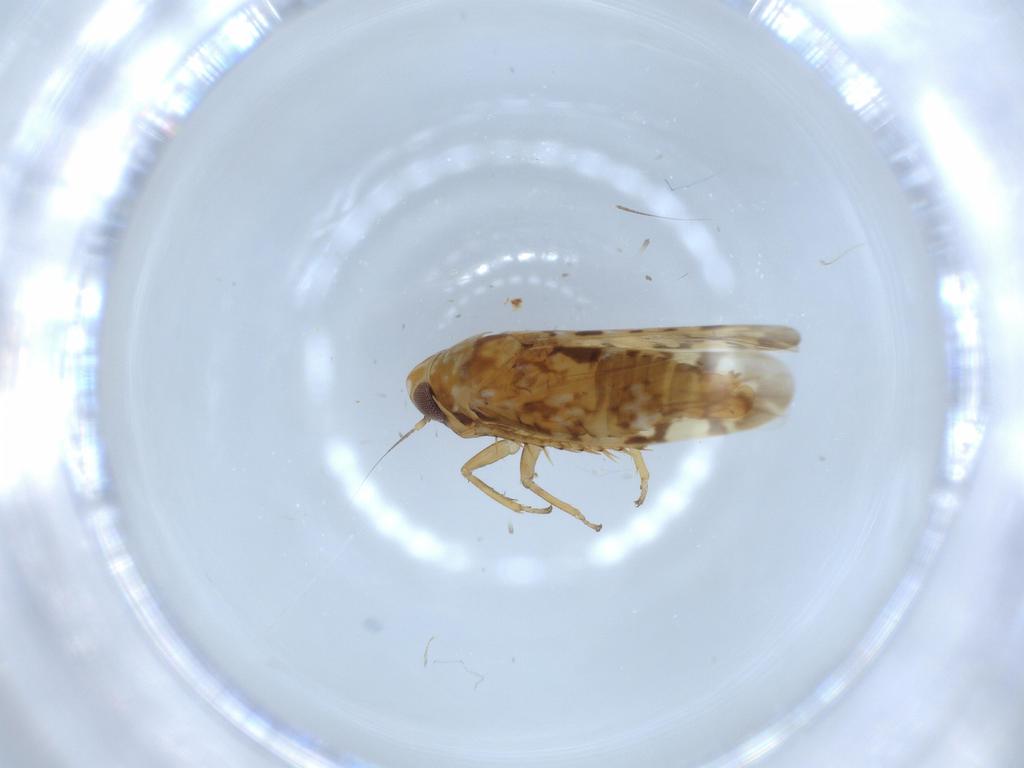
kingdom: Animalia
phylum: Arthropoda
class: Insecta
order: Hemiptera
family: Cicadellidae
